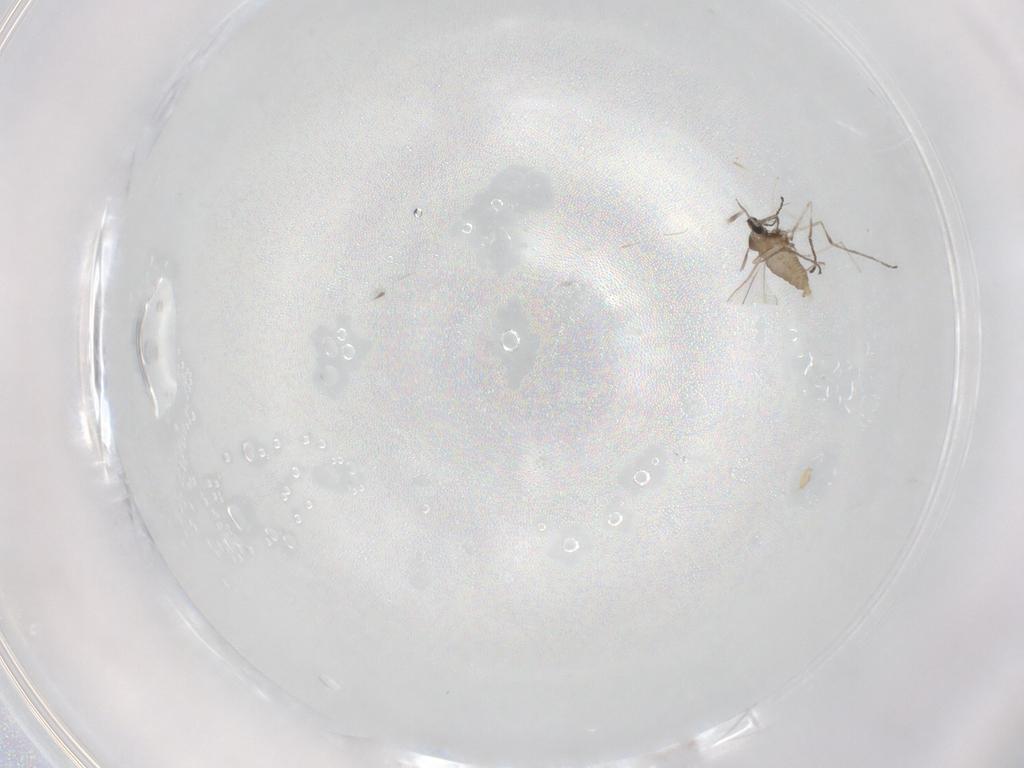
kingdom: Animalia
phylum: Arthropoda
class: Insecta
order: Diptera
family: Cecidomyiidae
